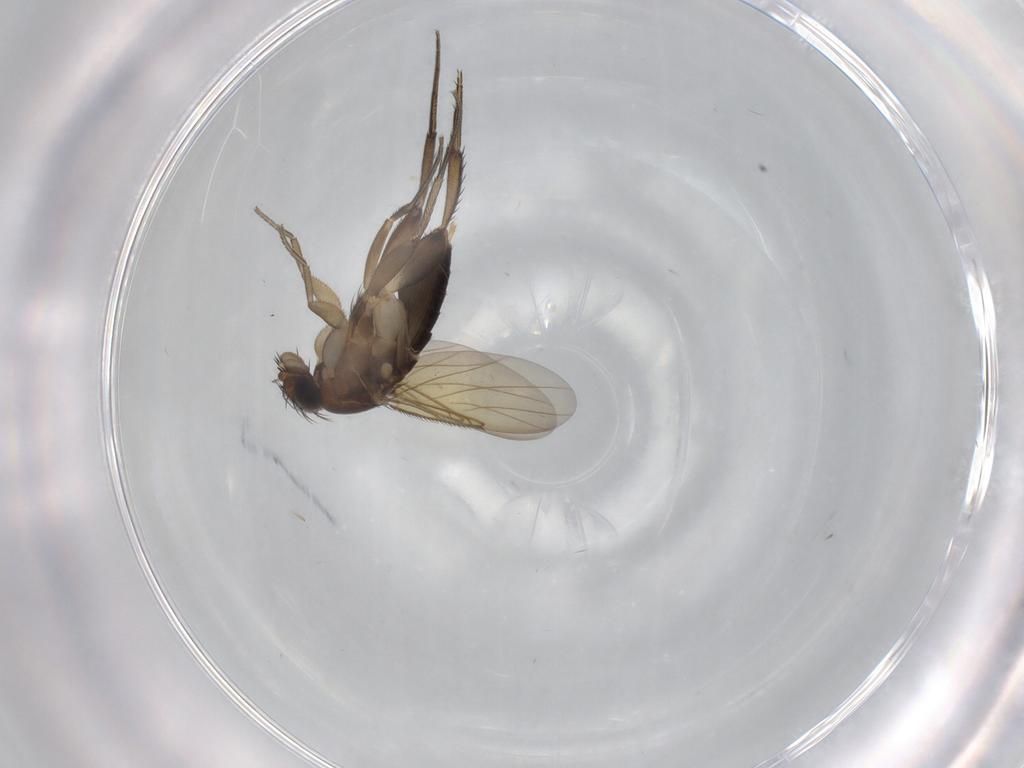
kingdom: Animalia
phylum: Arthropoda
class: Insecta
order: Diptera
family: Phoridae
